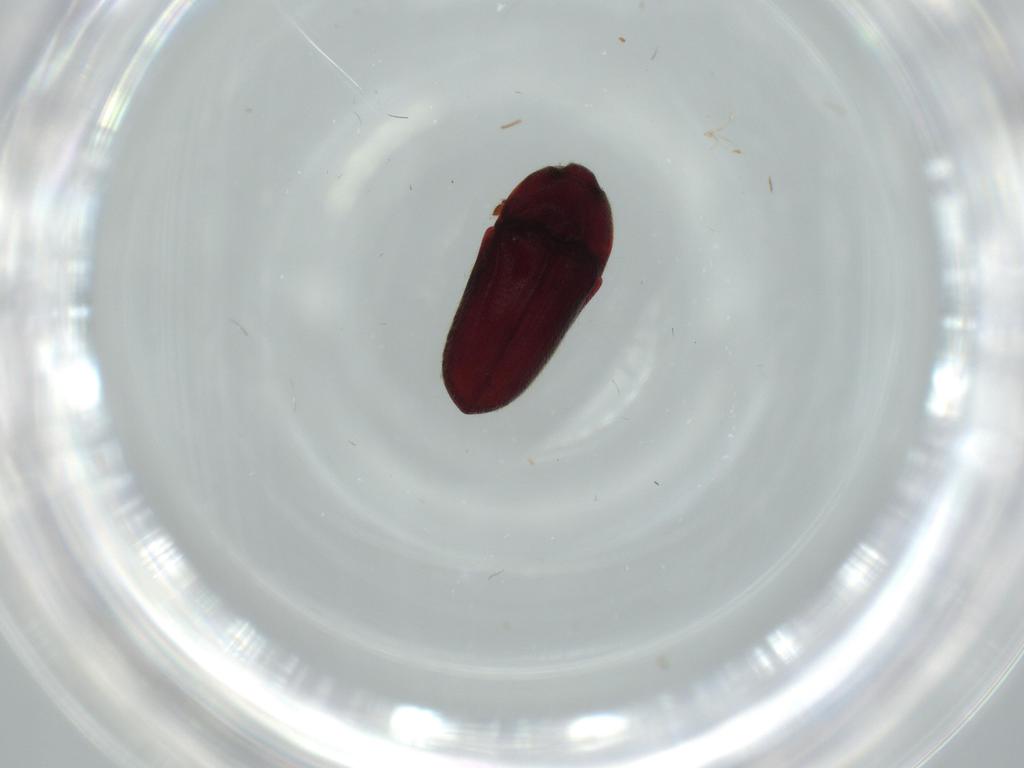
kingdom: Animalia
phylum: Arthropoda
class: Insecta
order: Coleoptera
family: Throscidae
